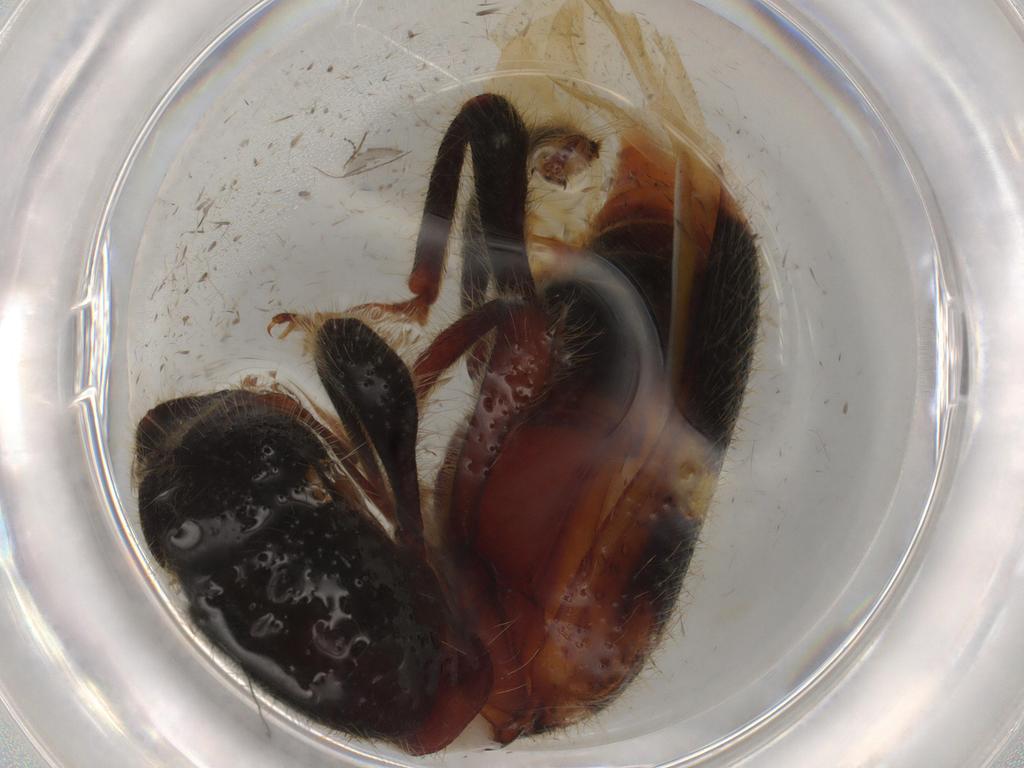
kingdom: Animalia
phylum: Arthropoda
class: Insecta
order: Coleoptera
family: Cleridae
